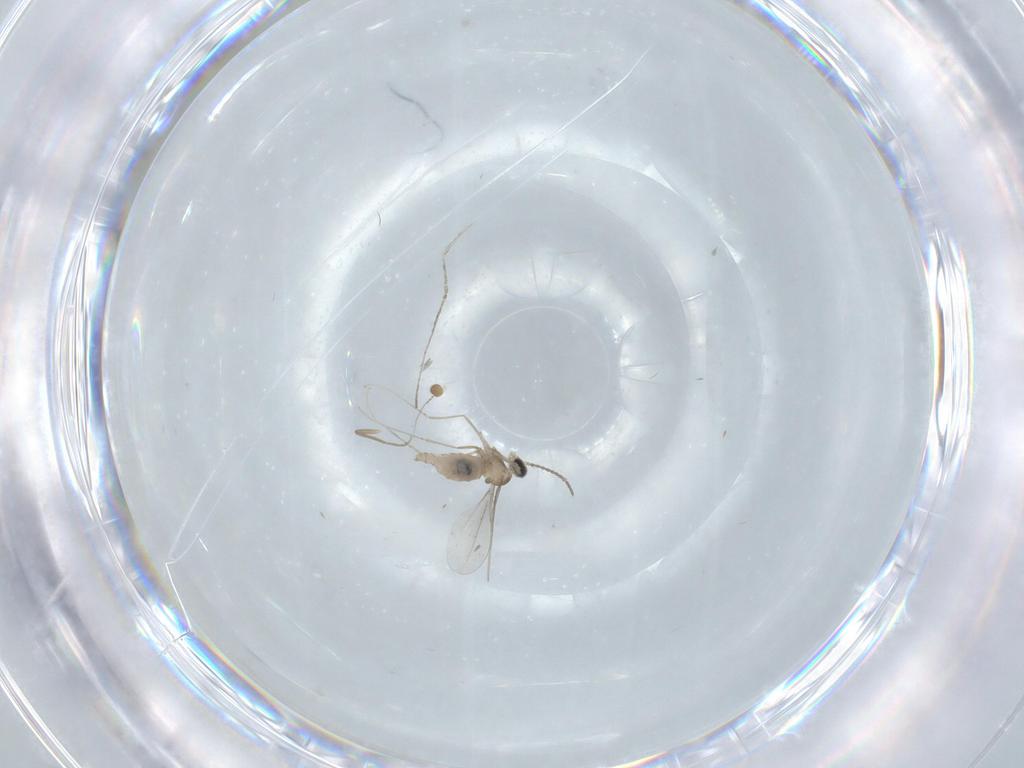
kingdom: Animalia
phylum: Arthropoda
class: Insecta
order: Diptera
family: Cecidomyiidae
